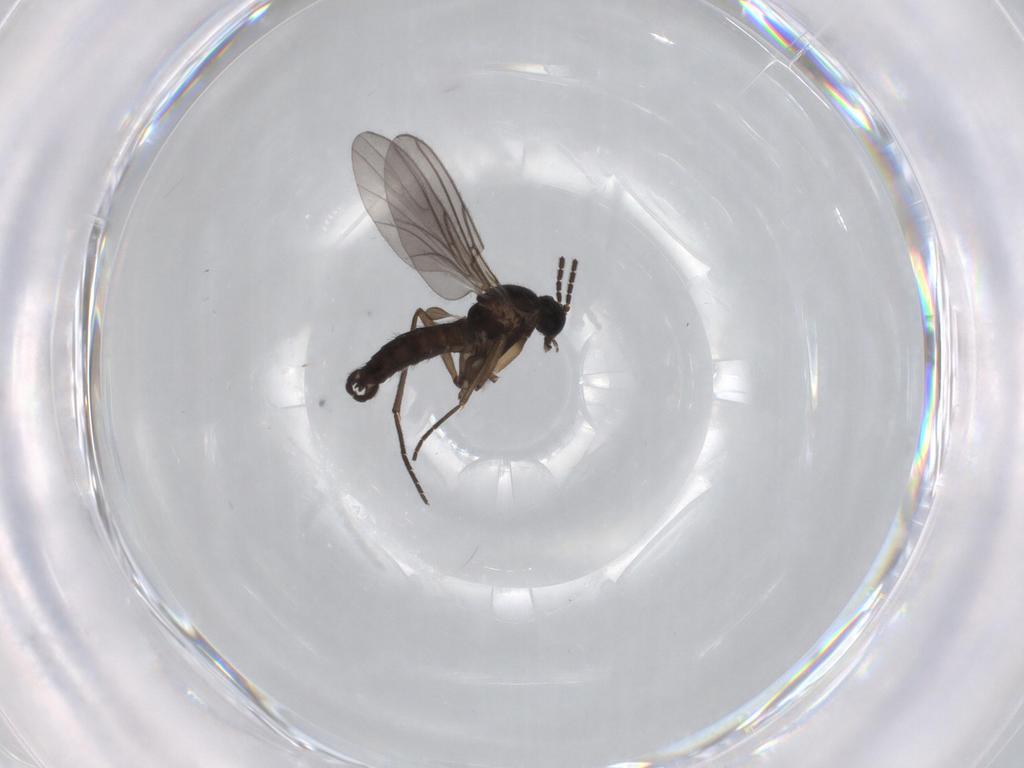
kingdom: Animalia
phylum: Arthropoda
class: Insecta
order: Diptera
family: Sciaridae
